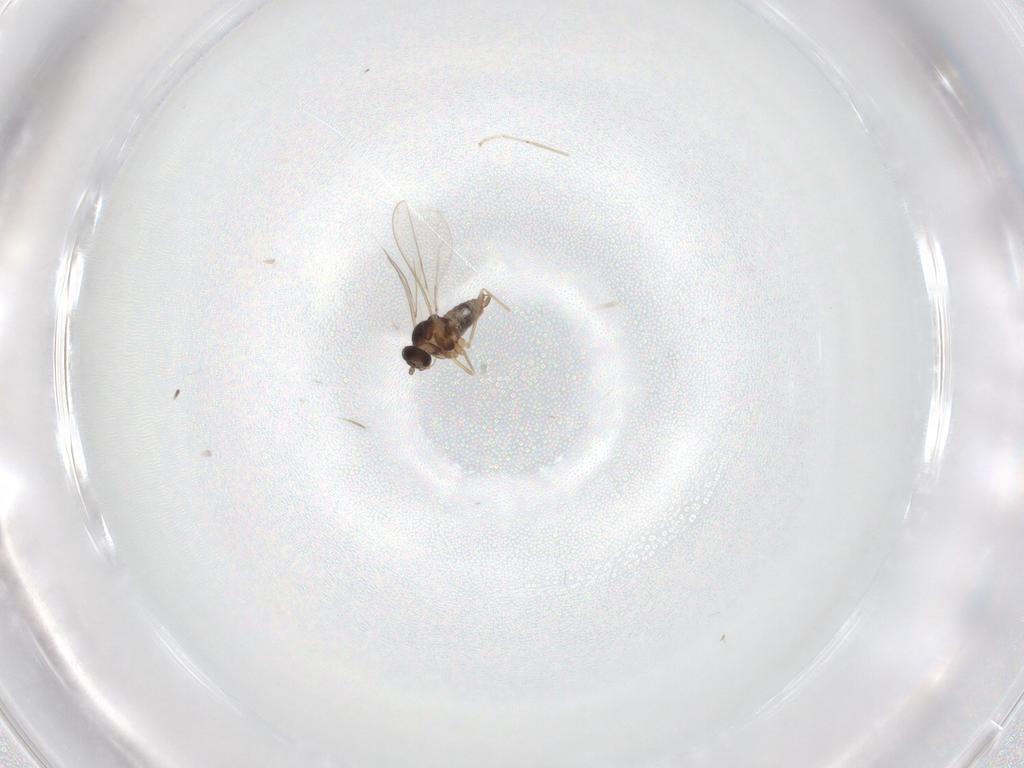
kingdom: Animalia
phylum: Arthropoda
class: Insecta
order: Diptera
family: Cecidomyiidae
